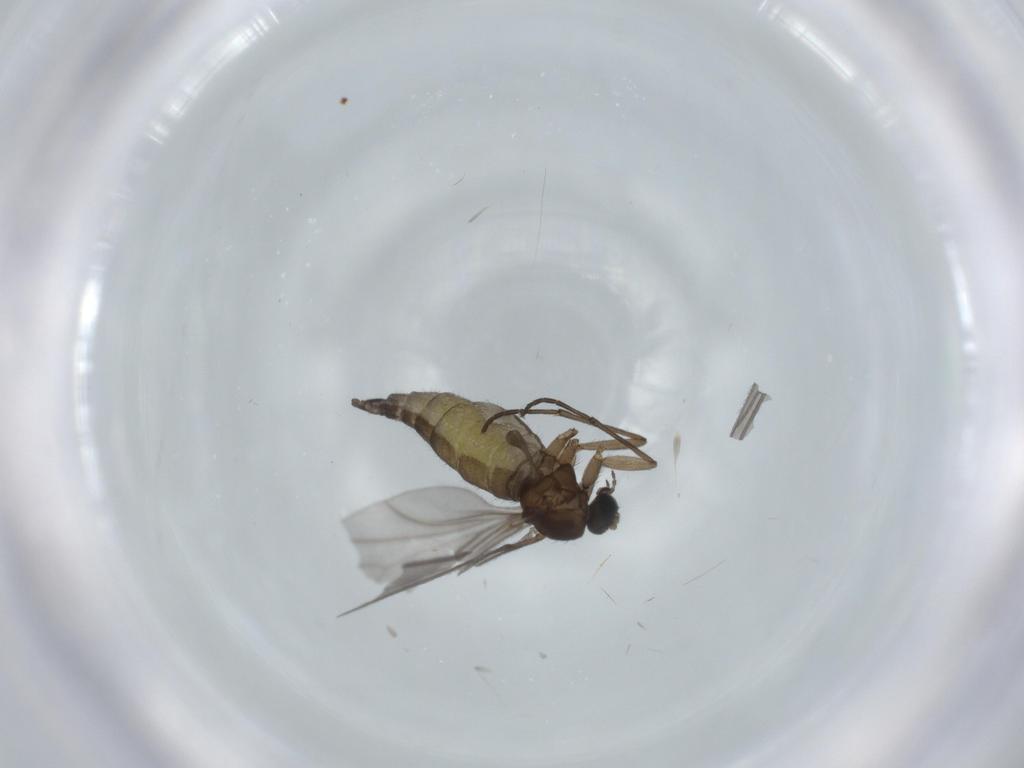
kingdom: Animalia
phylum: Arthropoda
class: Insecta
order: Diptera
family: Sciaridae
